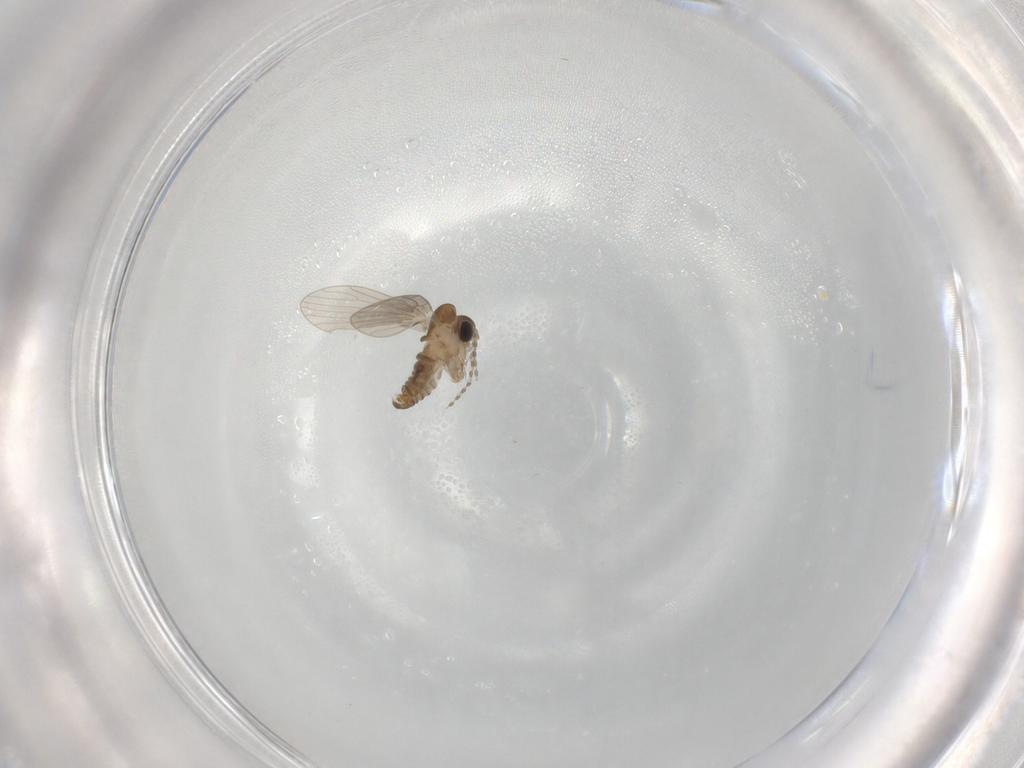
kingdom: Animalia
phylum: Arthropoda
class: Insecta
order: Diptera
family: Psychodidae
